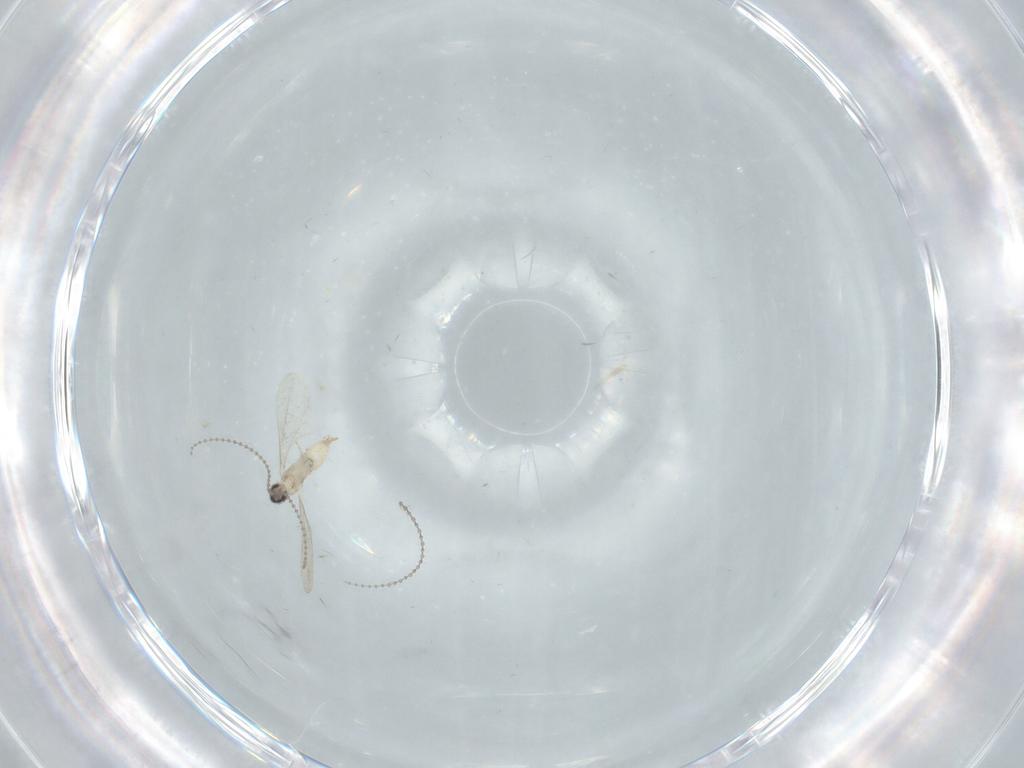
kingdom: Animalia
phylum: Arthropoda
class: Insecta
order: Diptera
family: Cecidomyiidae
